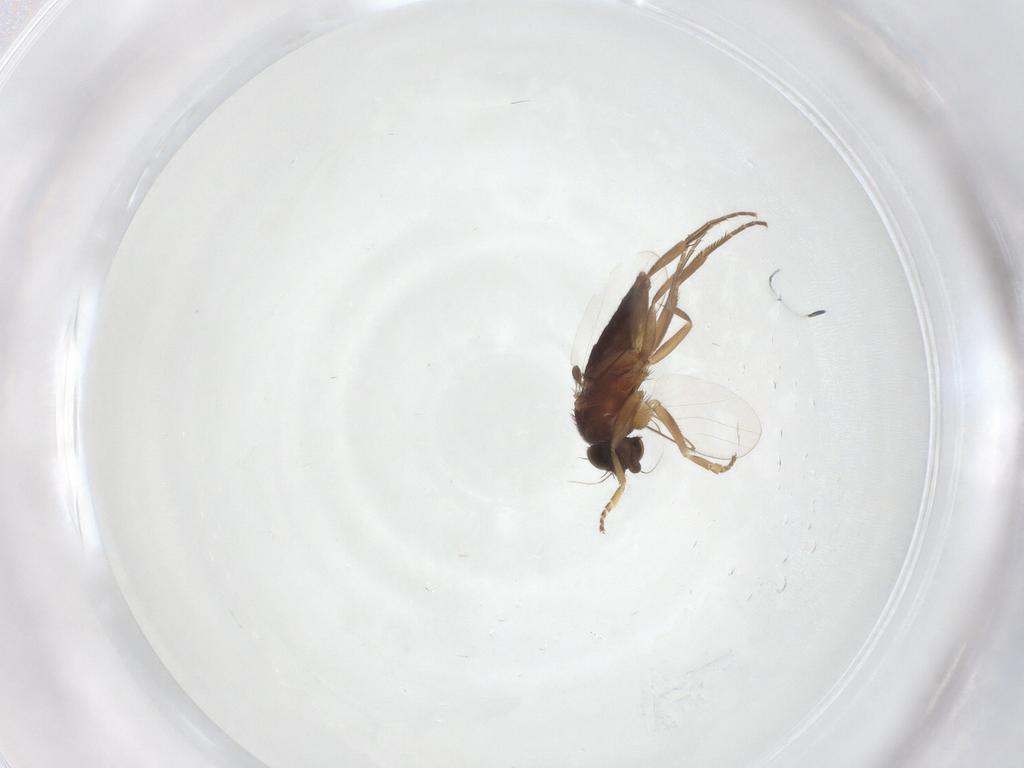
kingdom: Animalia
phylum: Arthropoda
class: Insecta
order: Diptera
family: Phoridae
